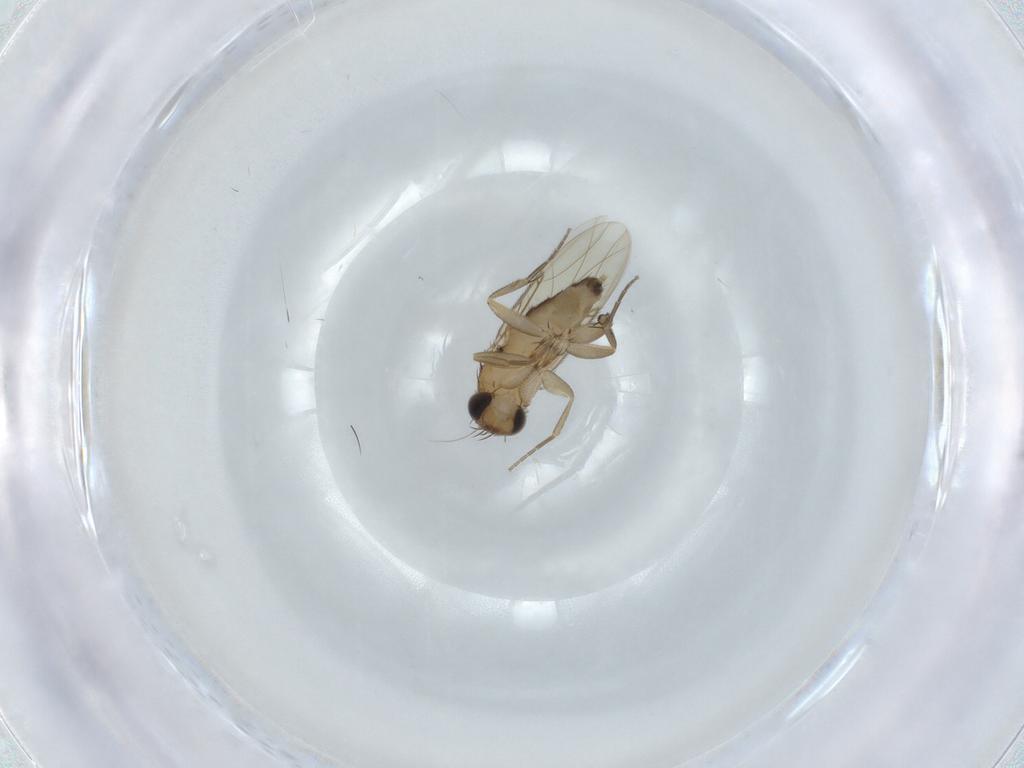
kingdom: Animalia
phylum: Arthropoda
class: Insecta
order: Diptera
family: Phoridae
